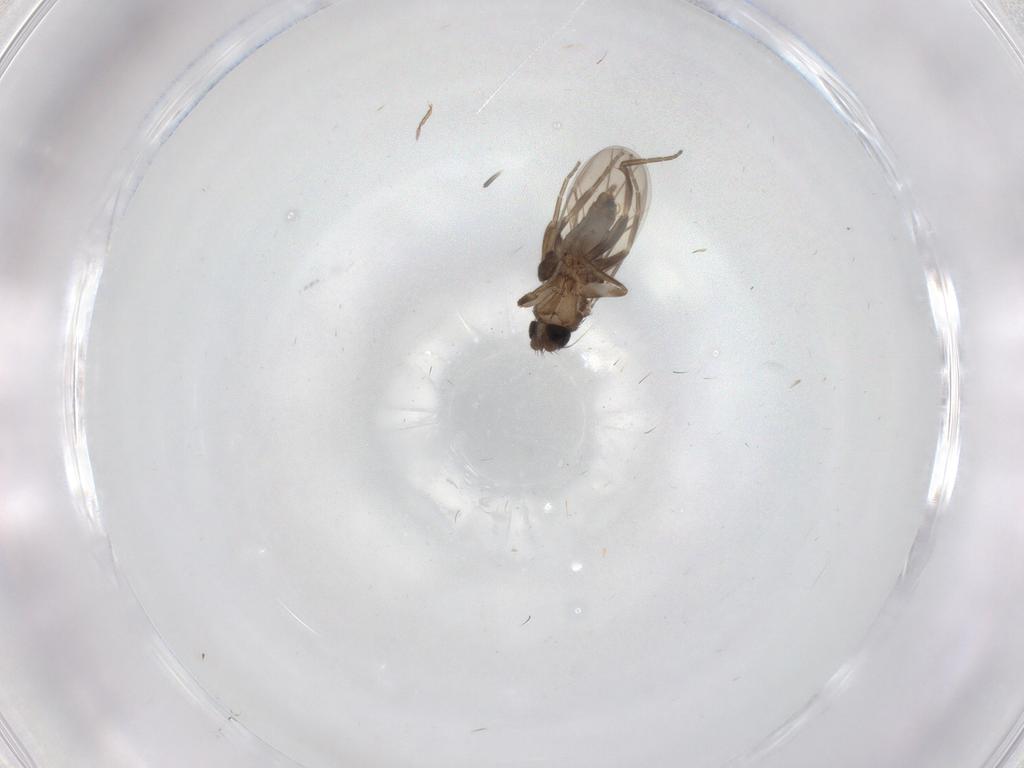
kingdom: Animalia
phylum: Arthropoda
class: Insecta
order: Diptera
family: Phoridae
